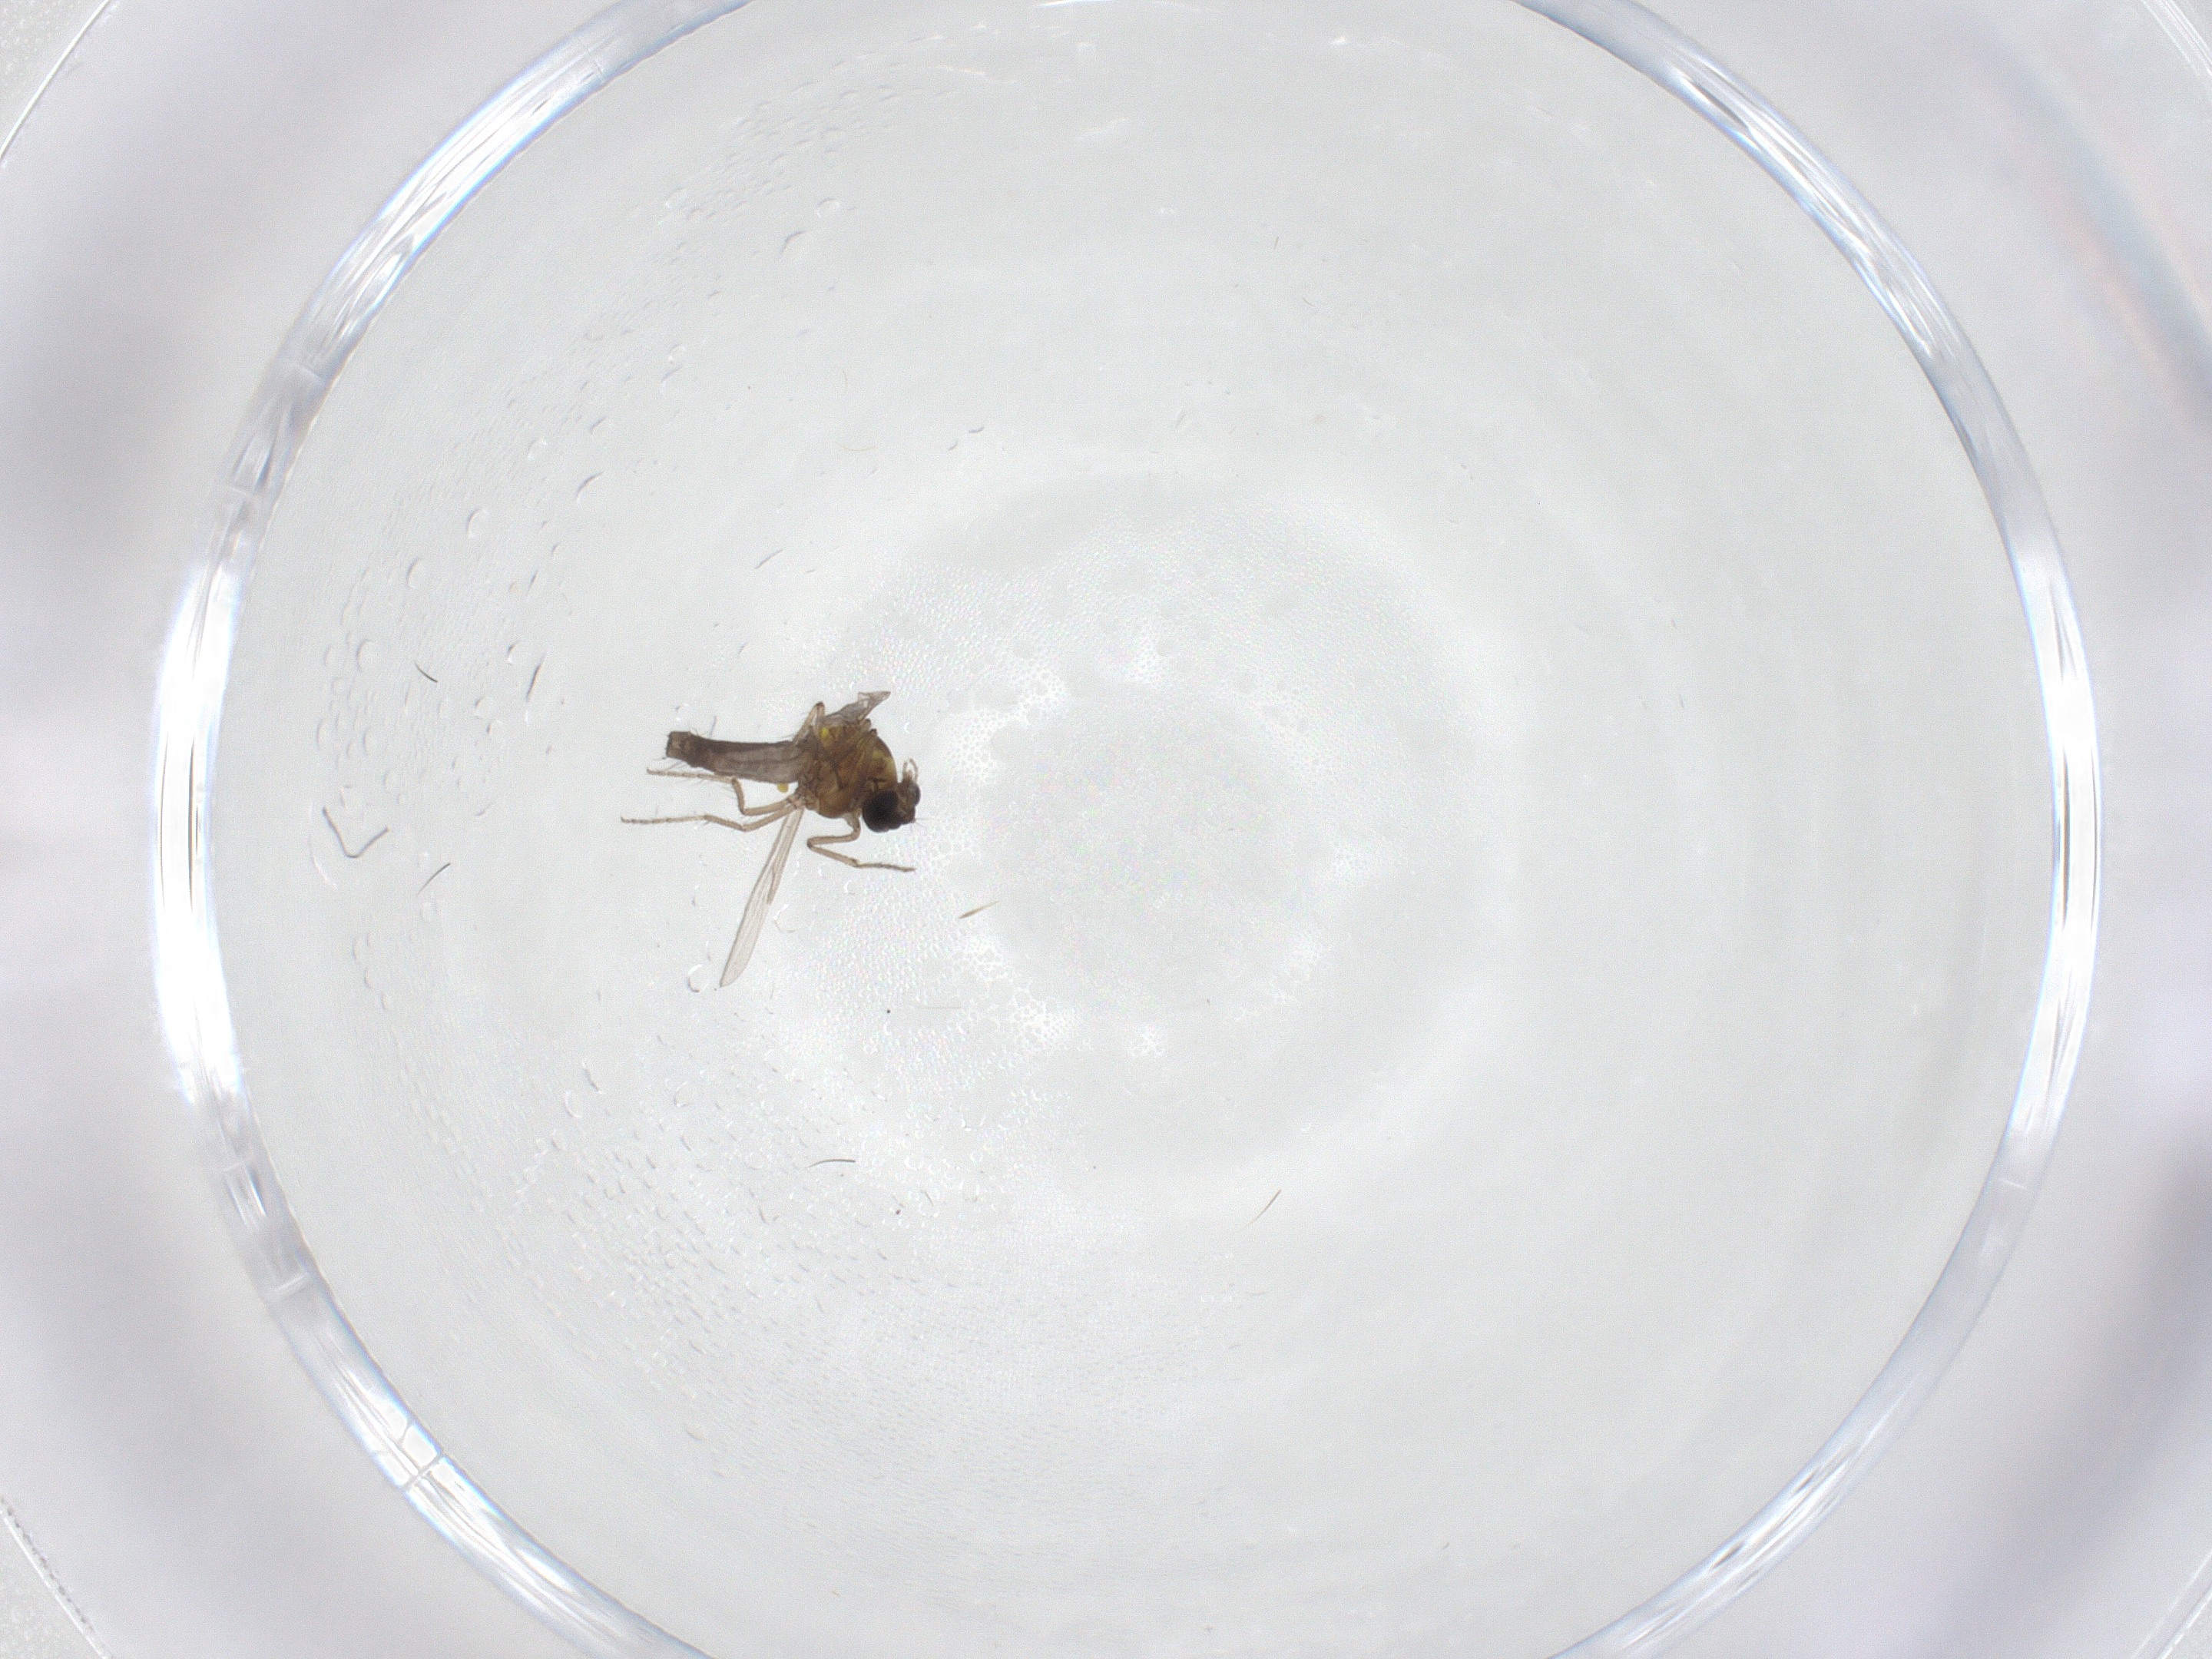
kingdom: Animalia
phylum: Arthropoda
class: Insecta
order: Diptera
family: Ceratopogonidae
